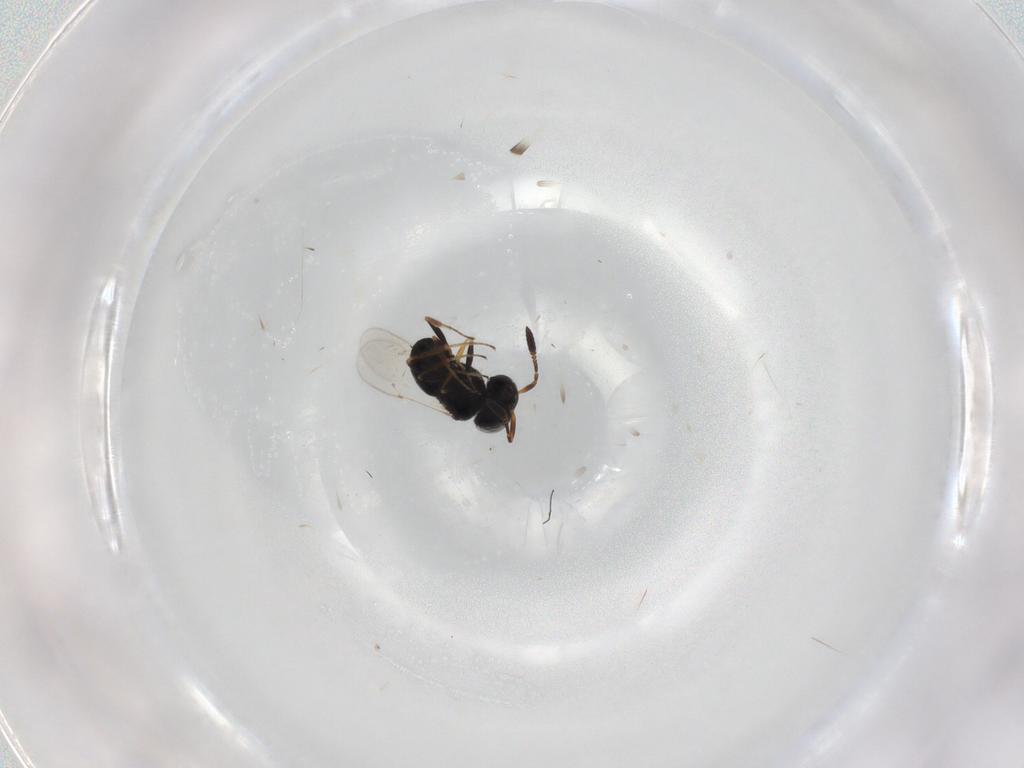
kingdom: Animalia
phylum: Arthropoda
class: Insecta
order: Coleoptera
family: Curculionidae
